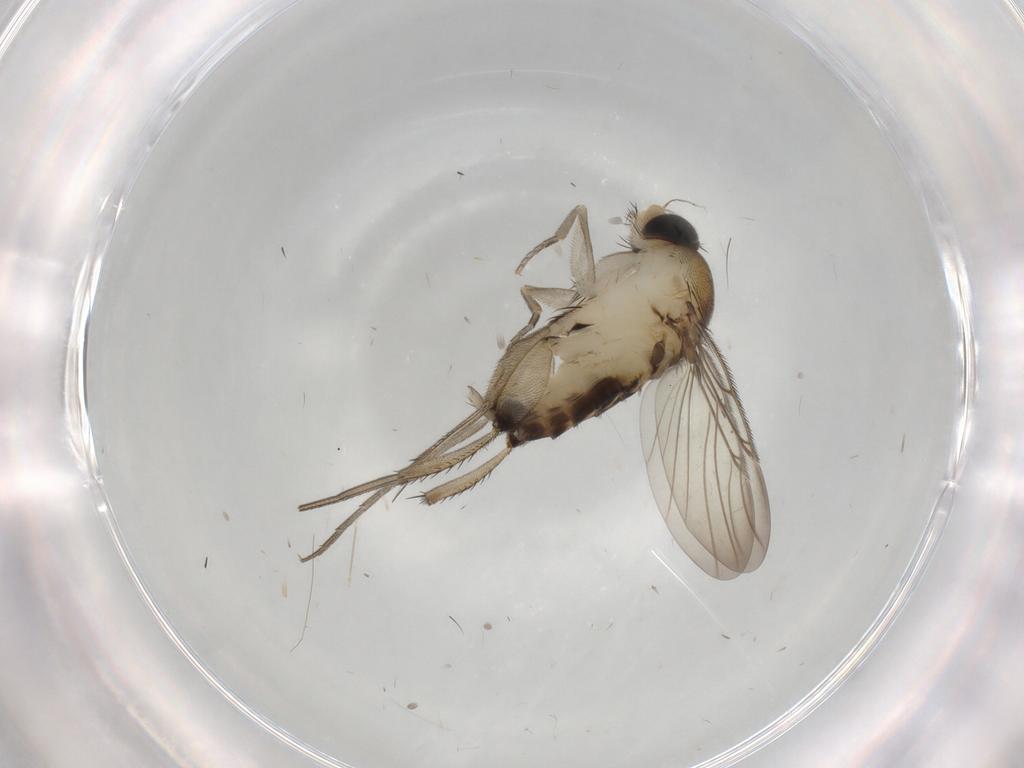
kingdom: Animalia
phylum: Arthropoda
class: Insecta
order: Diptera
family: Phoridae
